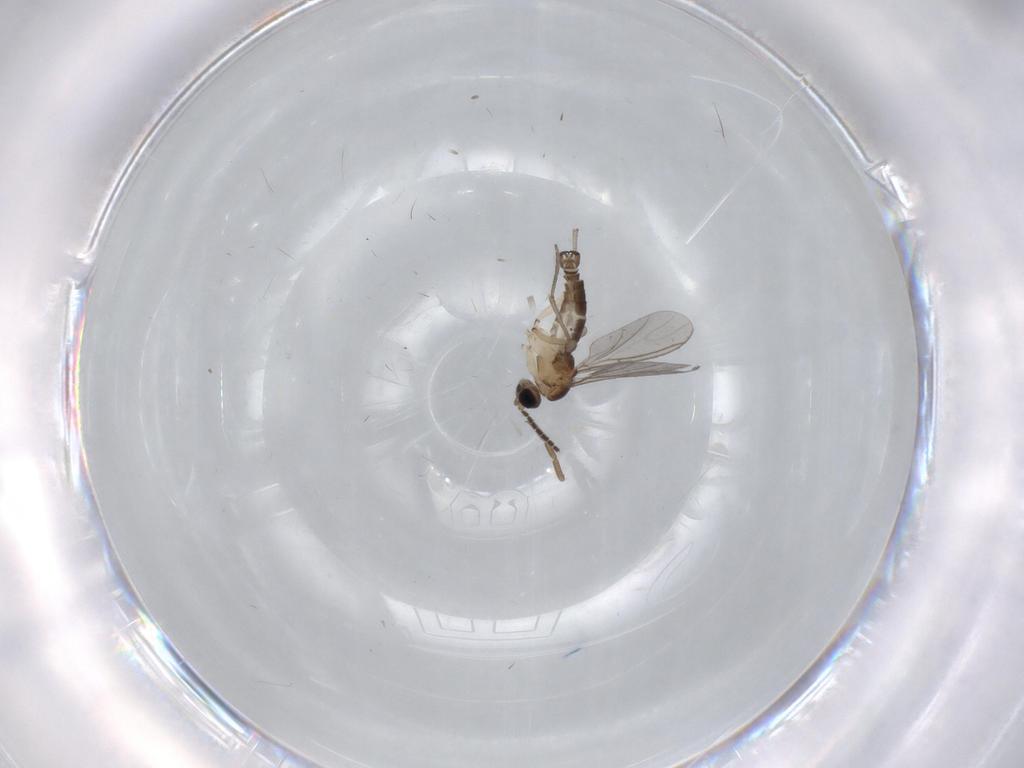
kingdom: Animalia
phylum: Arthropoda
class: Insecta
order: Diptera
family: Sciaridae
